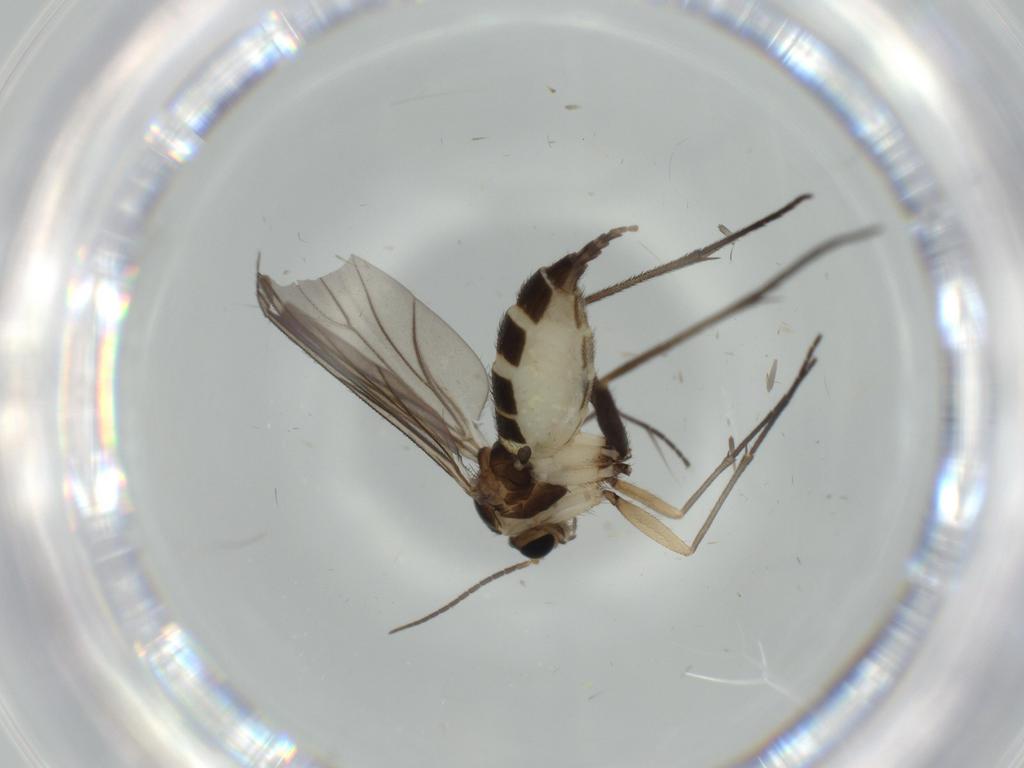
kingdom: Animalia
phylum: Arthropoda
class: Insecta
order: Diptera
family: Sciaridae
